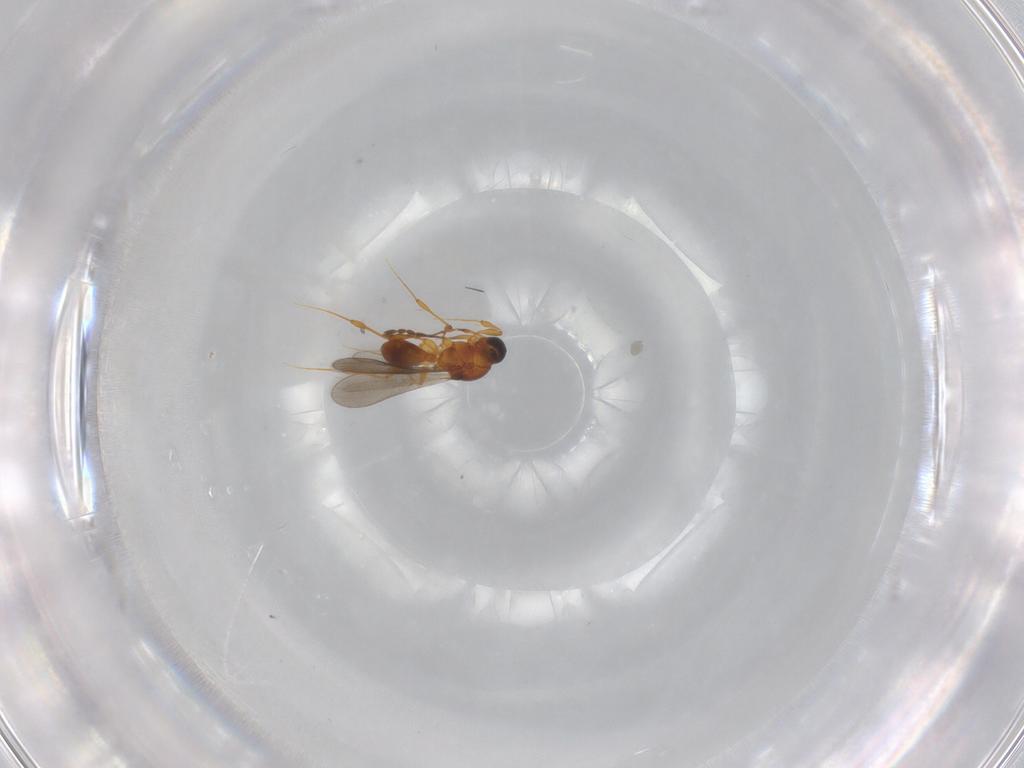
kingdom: Animalia
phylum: Arthropoda
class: Insecta
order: Hymenoptera
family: Platygastridae
